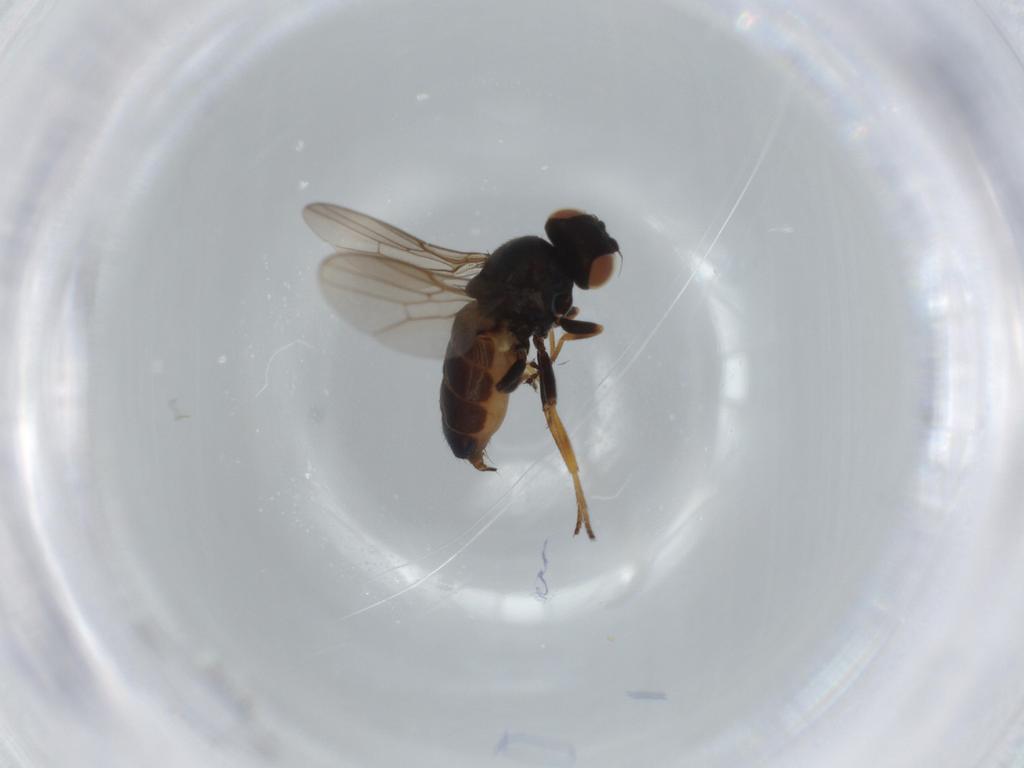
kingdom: Animalia
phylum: Arthropoda
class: Insecta
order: Diptera
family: Chloropidae
